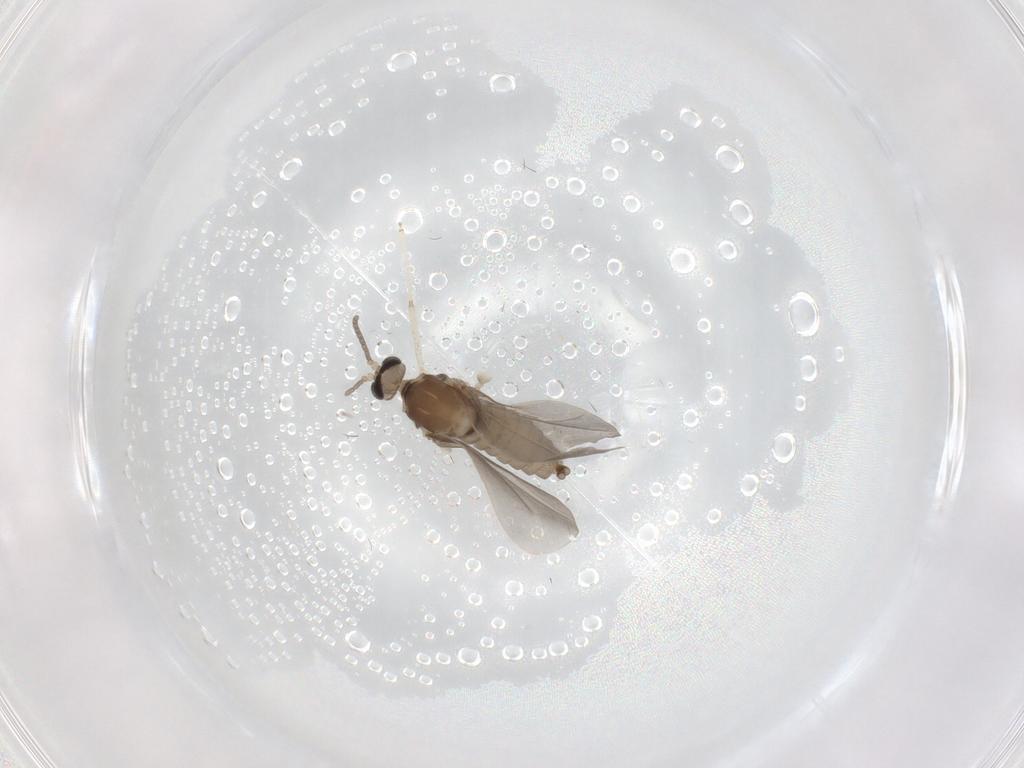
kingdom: Animalia
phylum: Arthropoda
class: Insecta
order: Diptera
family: Cecidomyiidae
